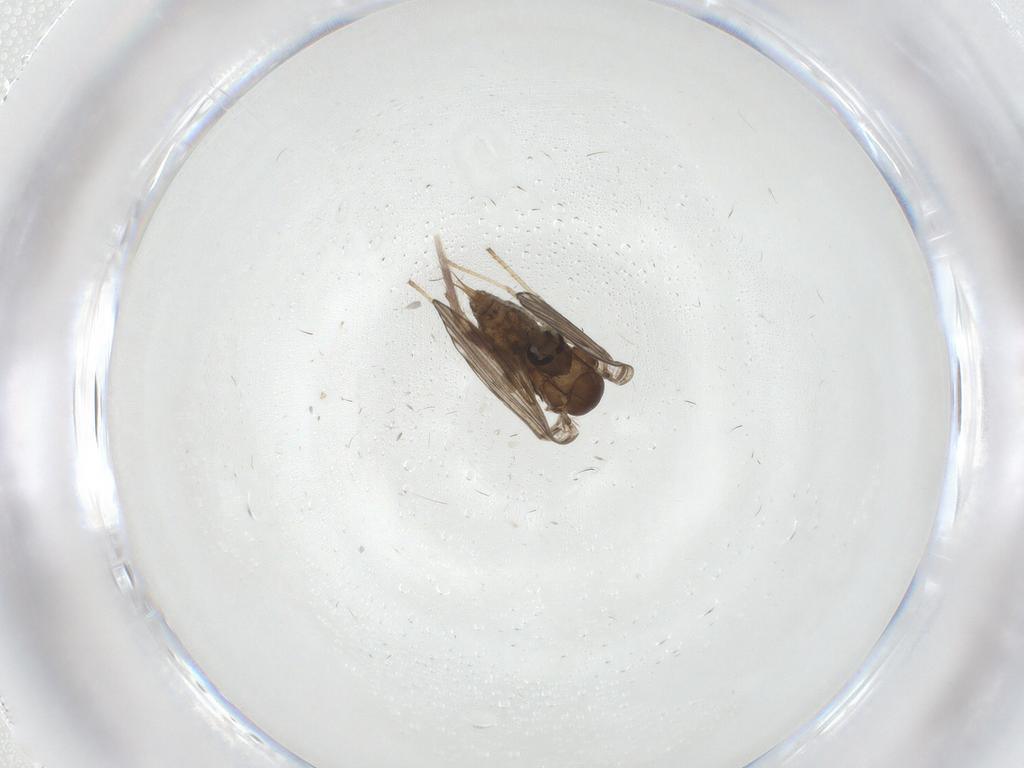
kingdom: Animalia
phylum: Arthropoda
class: Insecta
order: Diptera
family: Psychodidae
